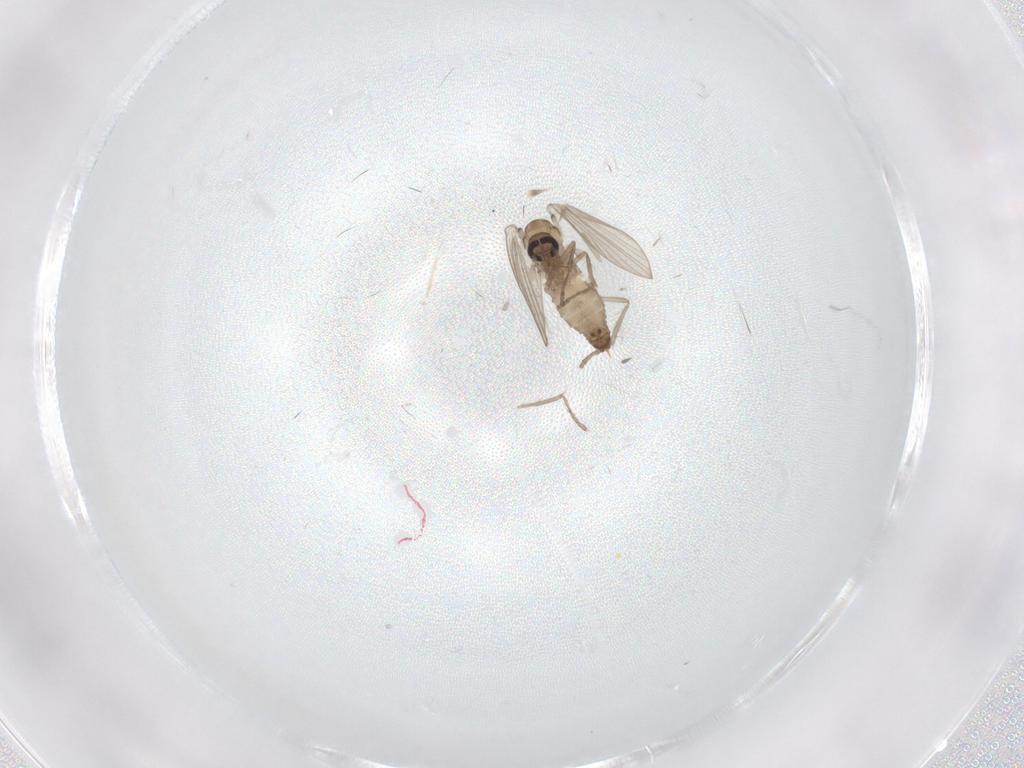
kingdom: Animalia
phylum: Arthropoda
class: Insecta
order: Diptera
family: Psychodidae
